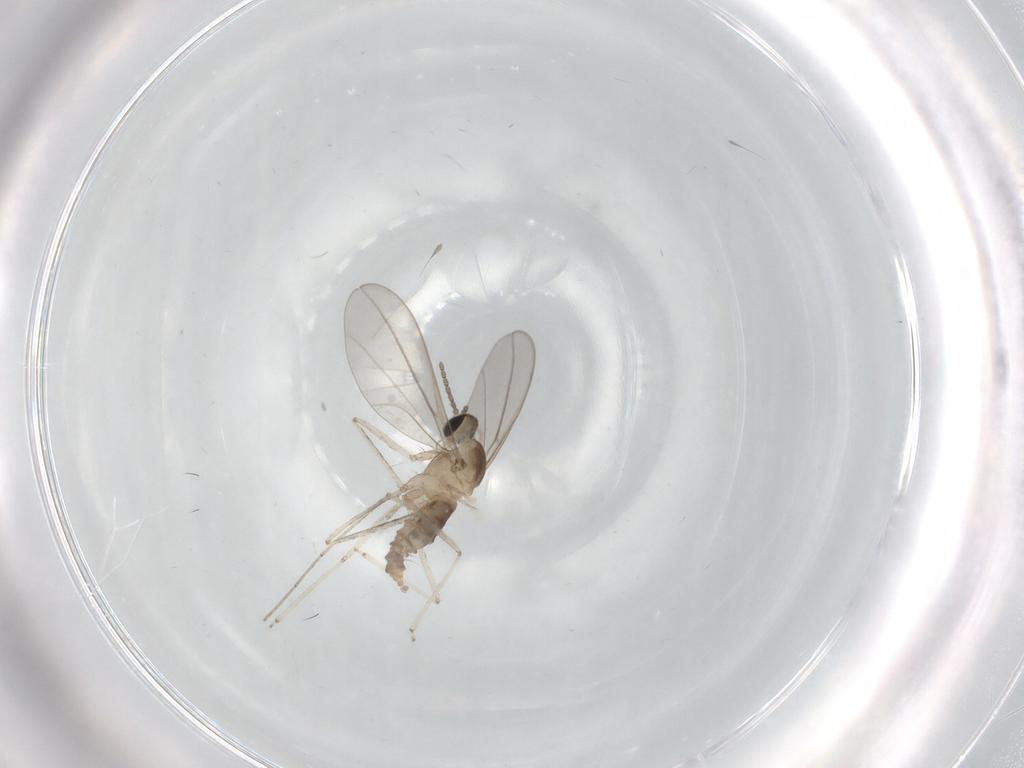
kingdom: Animalia
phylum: Arthropoda
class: Insecta
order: Diptera
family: Cecidomyiidae
